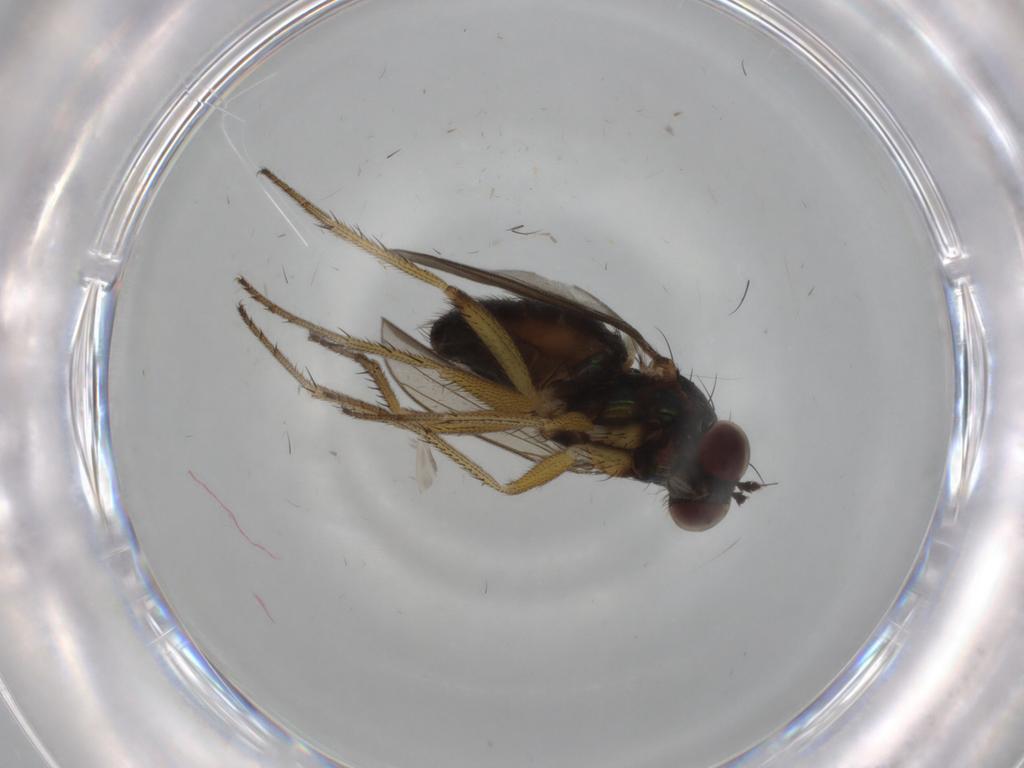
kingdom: Animalia
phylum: Arthropoda
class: Insecta
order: Diptera
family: Dolichopodidae
